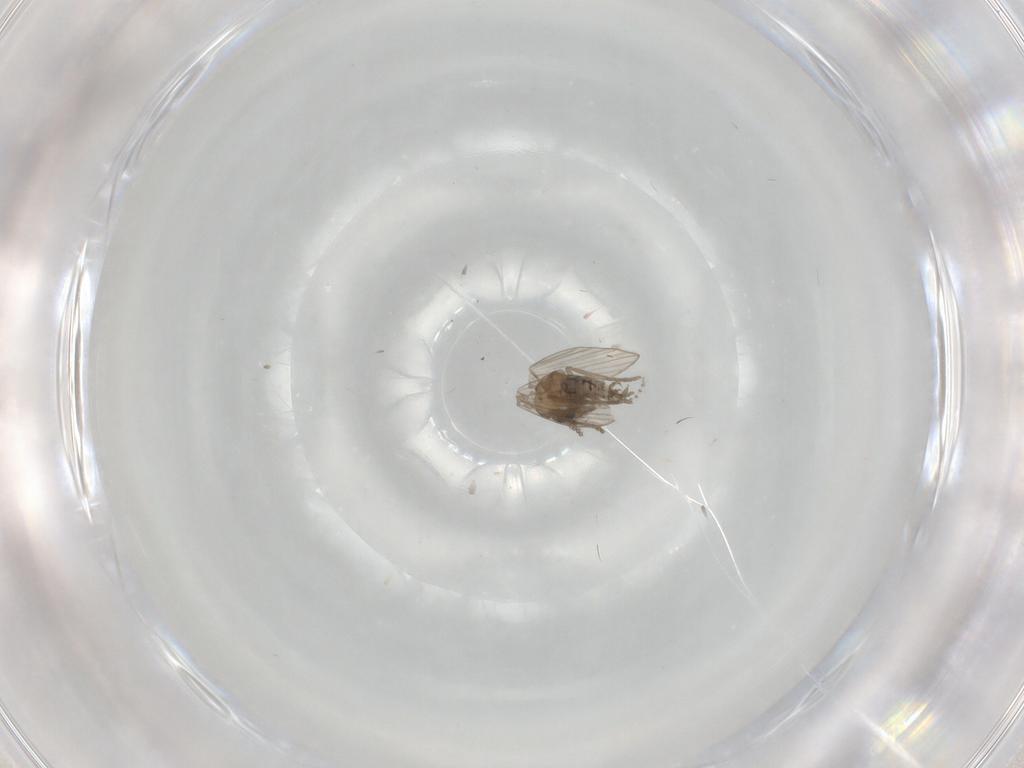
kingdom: Animalia
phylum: Arthropoda
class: Insecta
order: Diptera
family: Psychodidae
